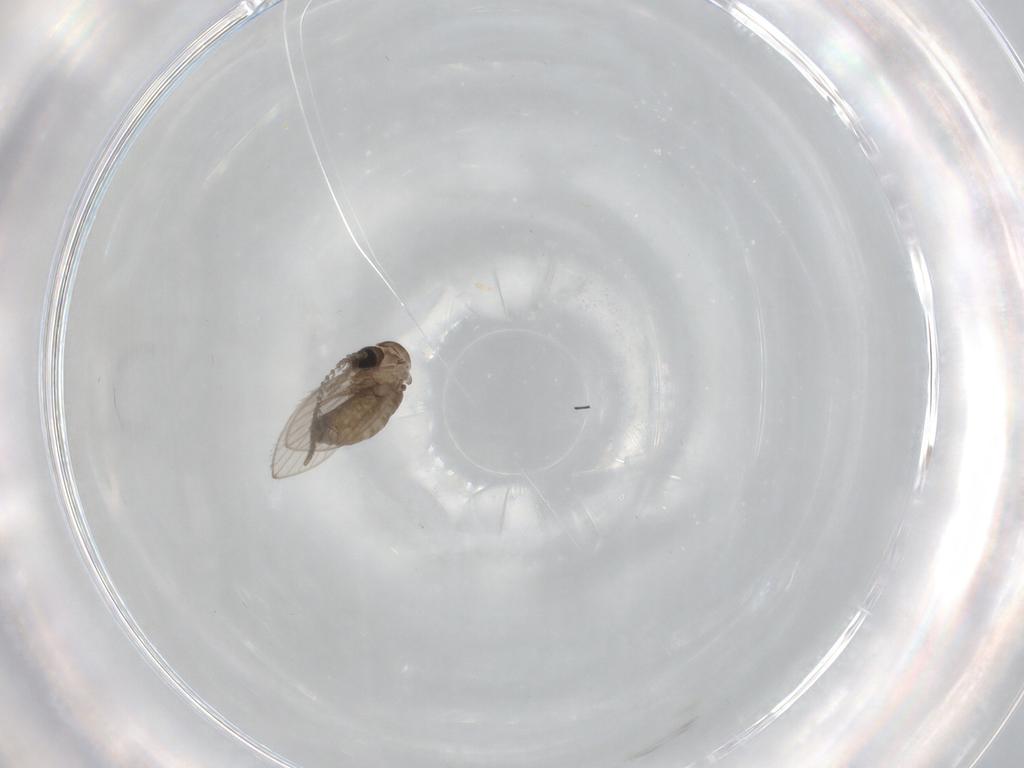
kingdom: Animalia
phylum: Arthropoda
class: Insecta
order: Diptera
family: Psychodidae
